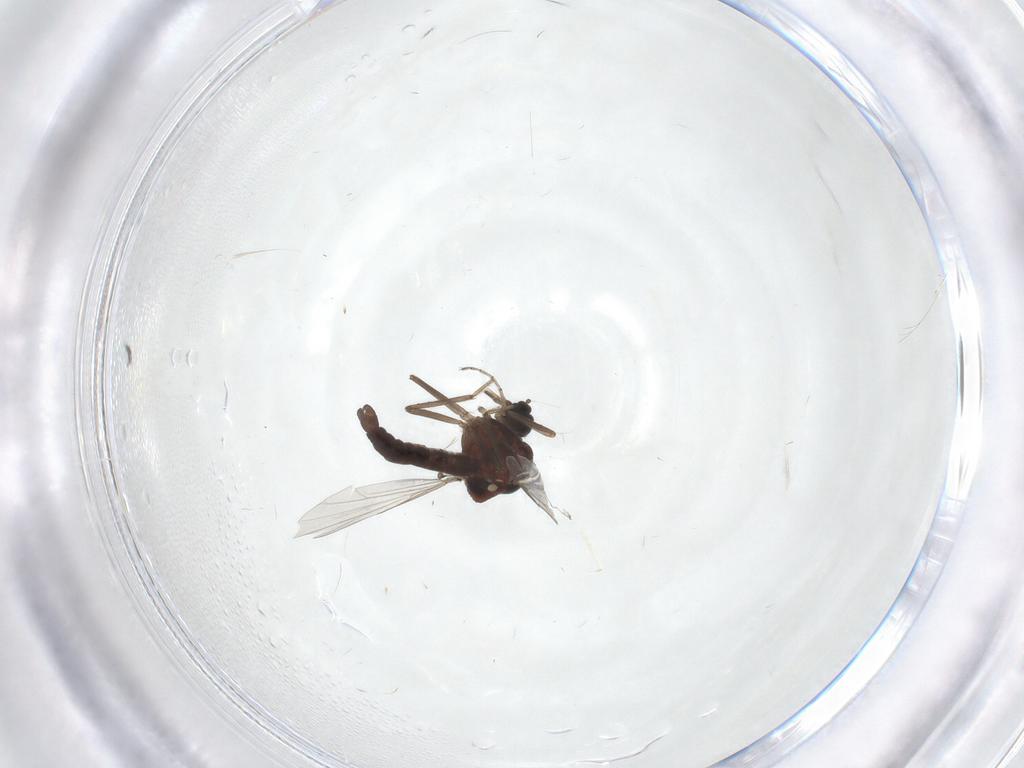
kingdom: Animalia
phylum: Arthropoda
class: Insecta
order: Diptera
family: Ceratopogonidae
